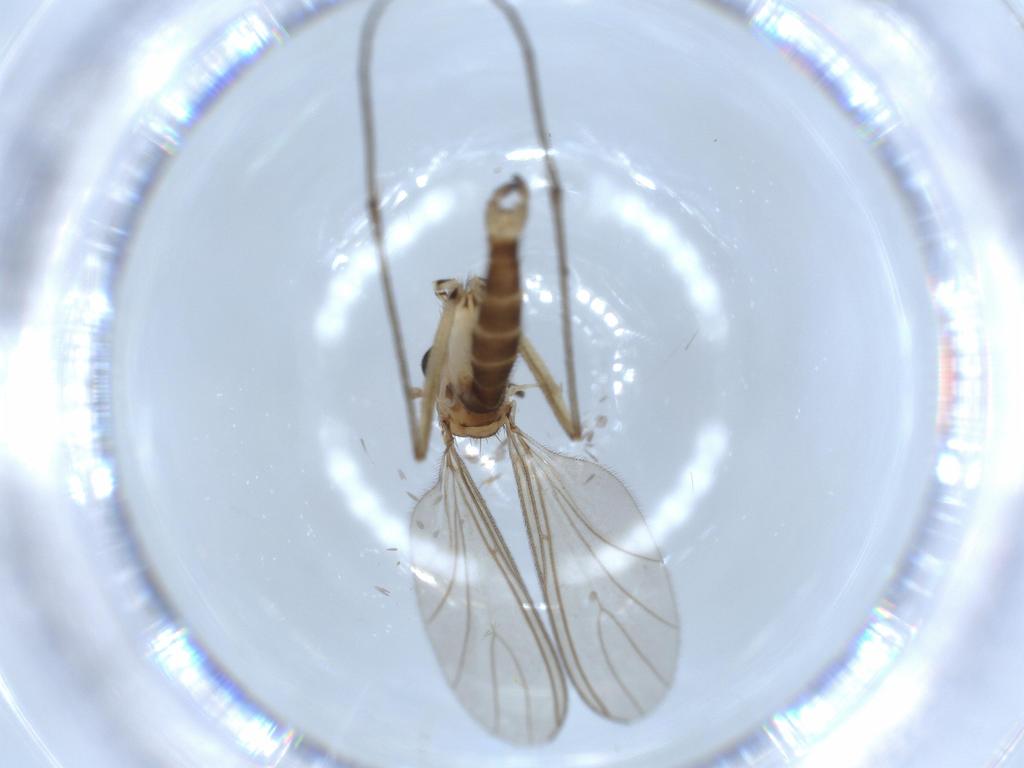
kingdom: Animalia
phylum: Arthropoda
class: Insecta
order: Diptera
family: Sciaridae
